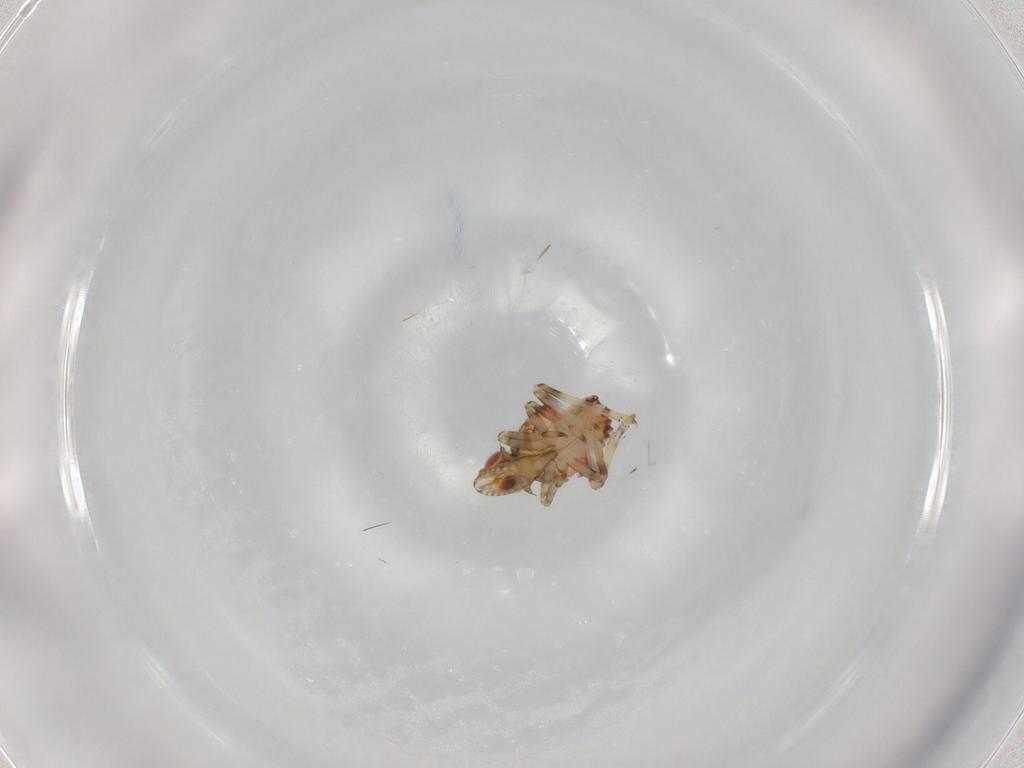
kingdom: Animalia
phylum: Arthropoda
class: Insecta
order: Hemiptera
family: Tropiduchidae
